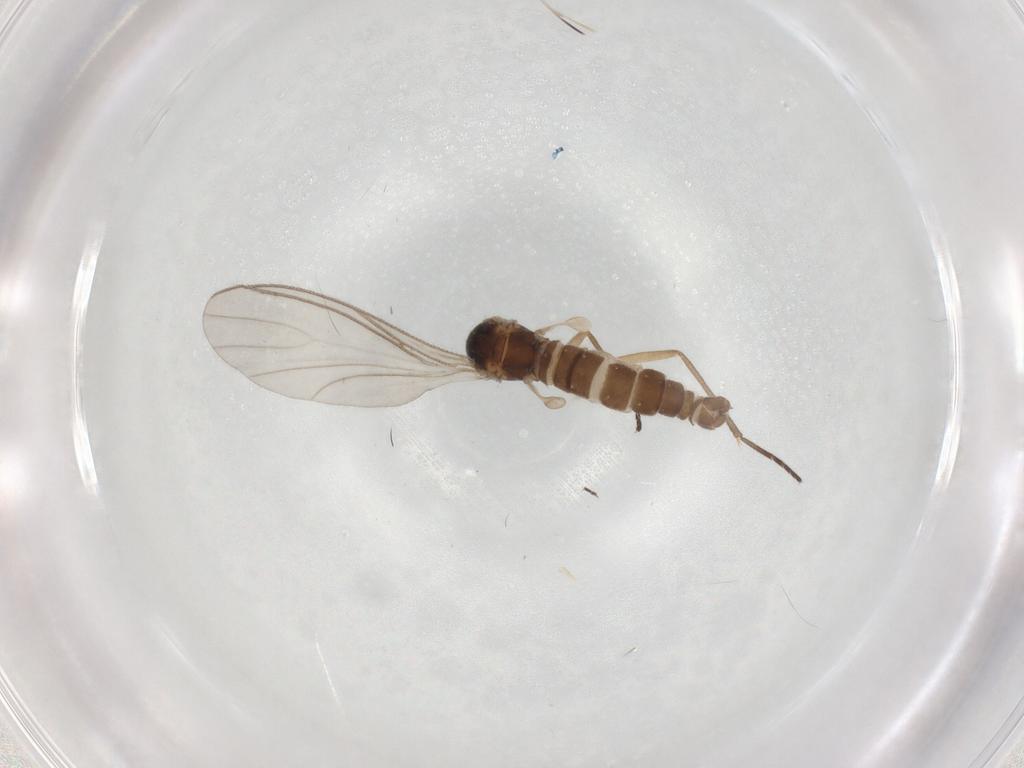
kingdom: Animalia
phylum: Arthropoda
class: Insecta
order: Diptera
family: Sciaridae
